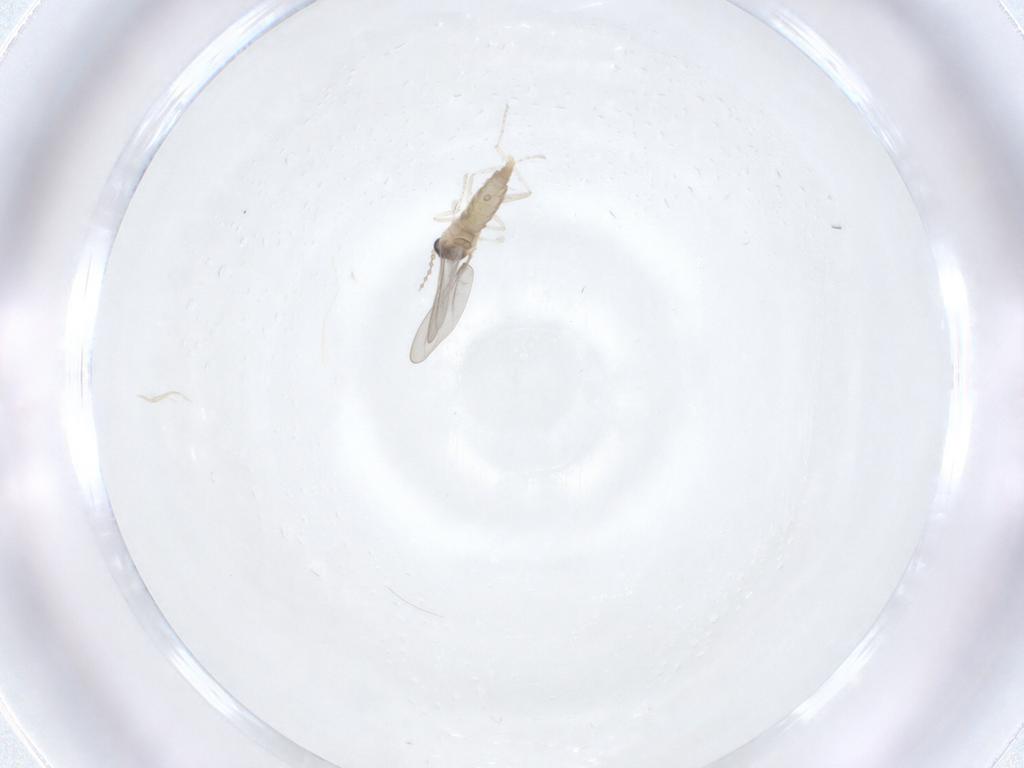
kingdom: Animalia
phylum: Arthropoda
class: Insecta
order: Diptera
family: Cecidomyiidae
